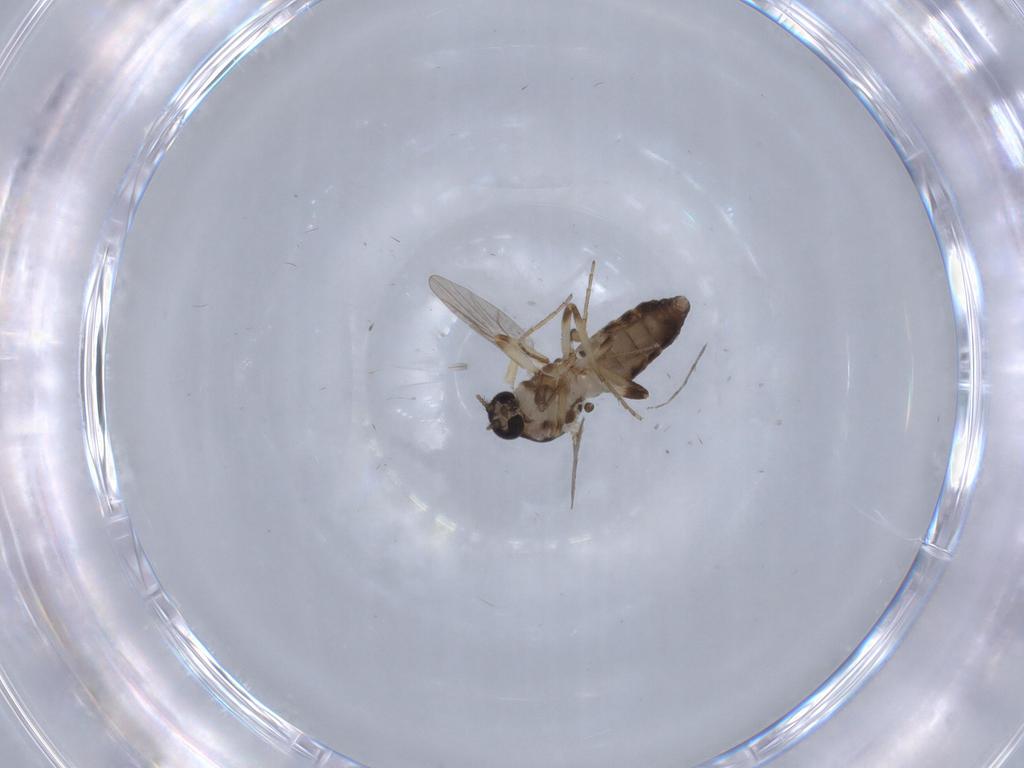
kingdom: Animalia
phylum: Arthropoda
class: Insecta
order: Diptera
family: Ceratopogonidae
